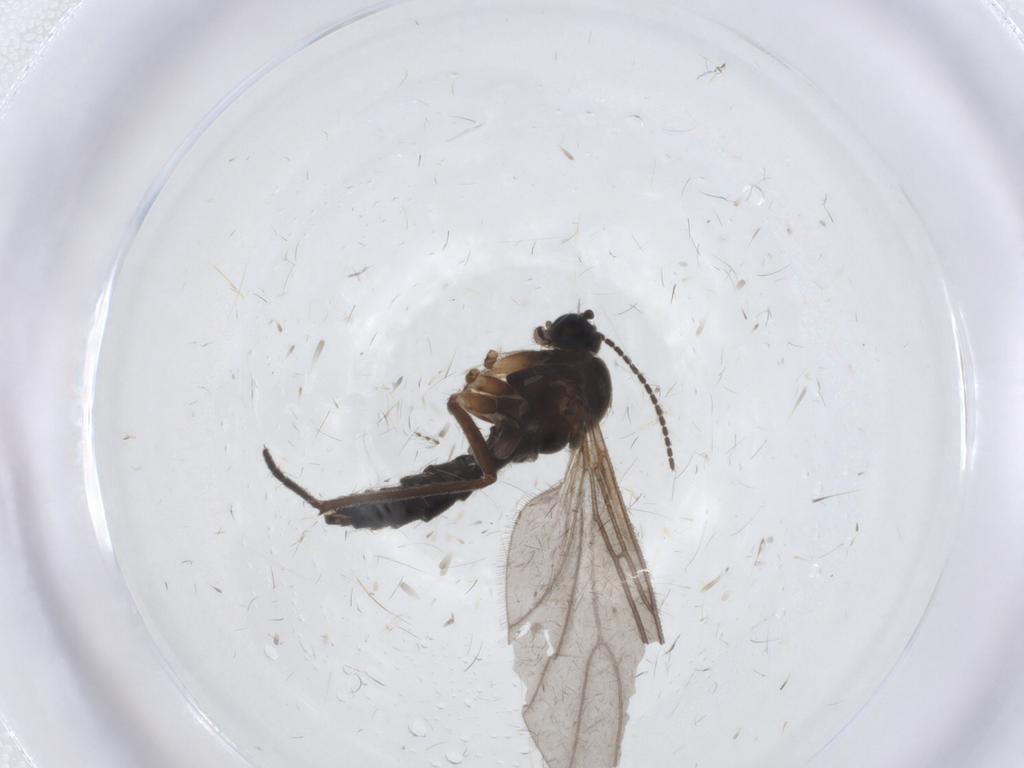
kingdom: Animalia
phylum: Arthropoda
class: Insecta
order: Diptera
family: Sciaridae
